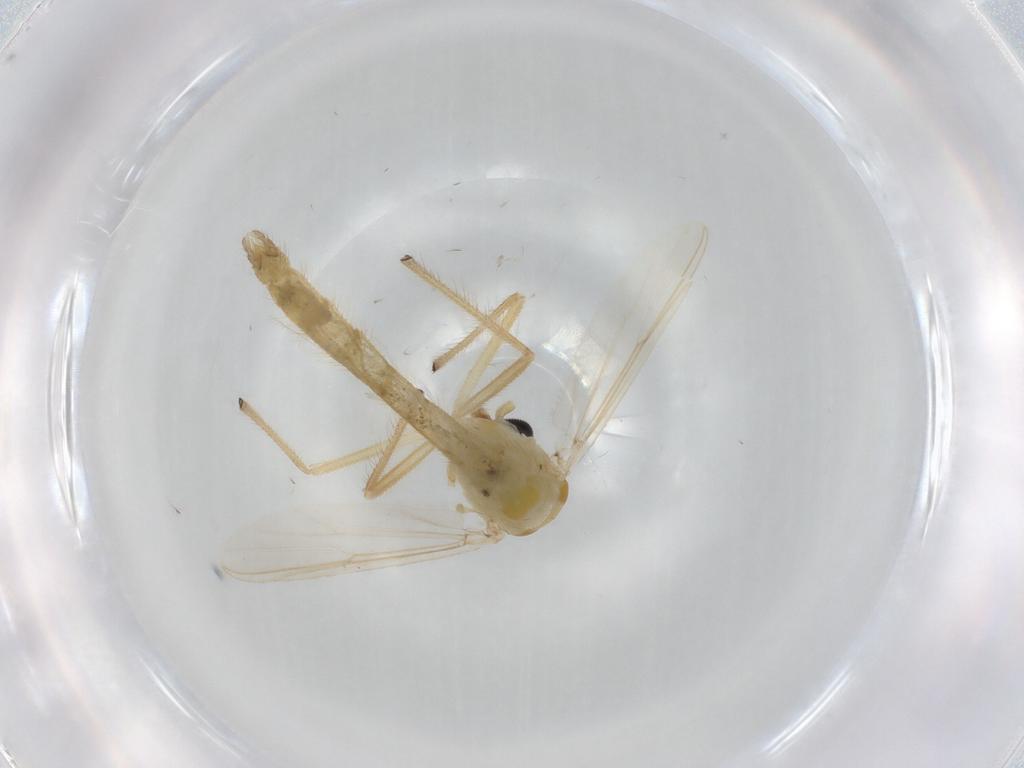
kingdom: Animalia
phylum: Arthropoda
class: Insecta
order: Diptera
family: Chironomidae
